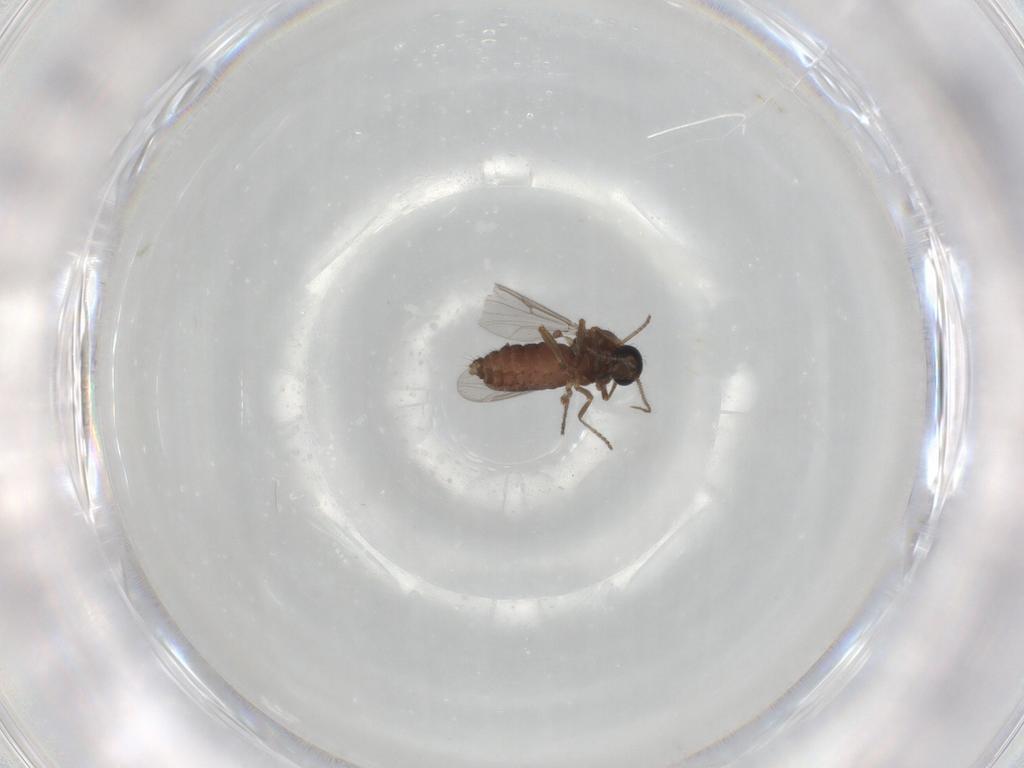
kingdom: Animalia
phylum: Arthropoda
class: Insecta
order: Diptera
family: Ceratopogonidae
